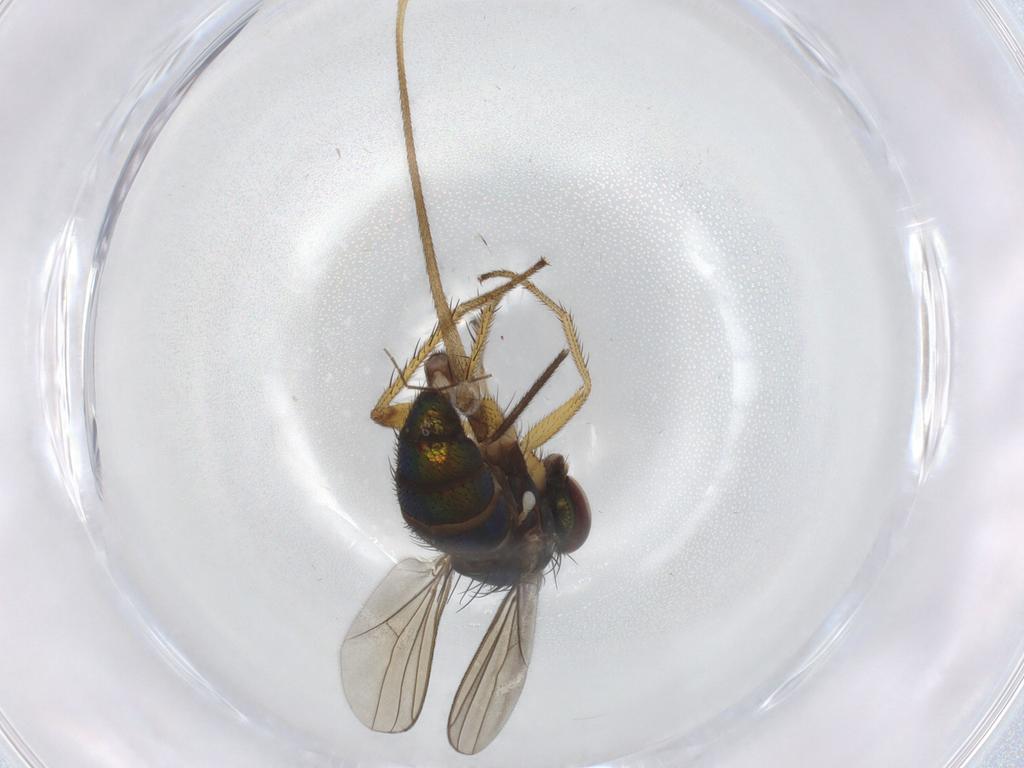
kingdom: Animalia
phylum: Arthropoda
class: Insecta
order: Diptera
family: Dolichopodidae
